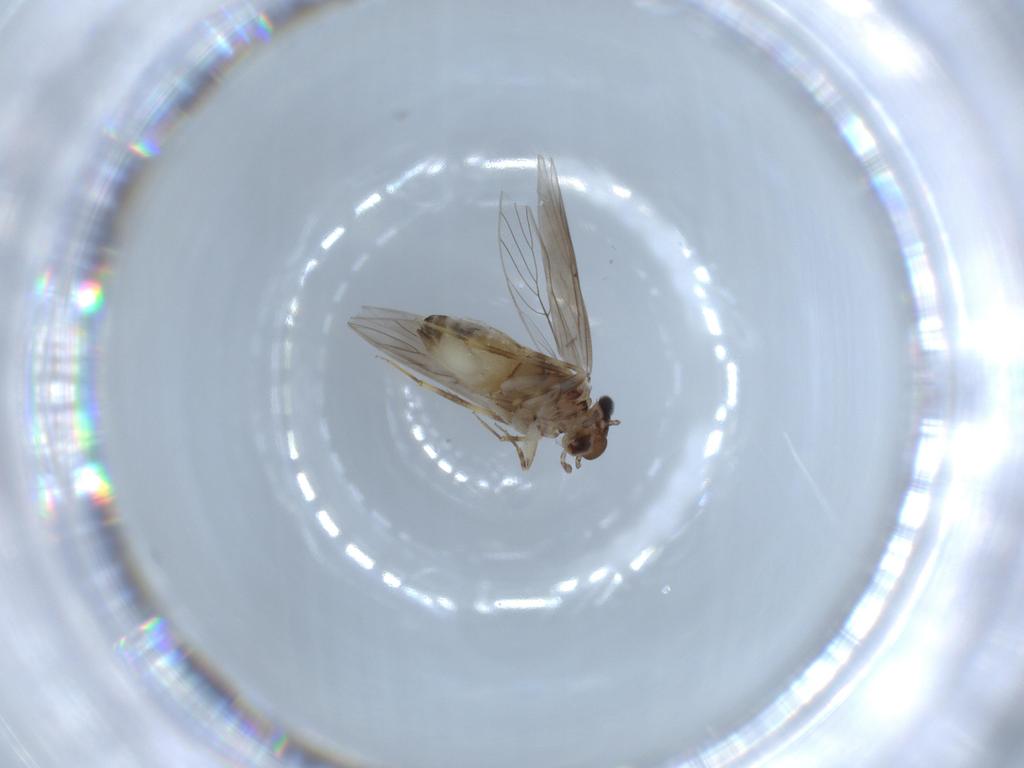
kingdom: Animalia
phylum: Arthropoda
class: Insecta
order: Psocodea
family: Lepidopsocidae
